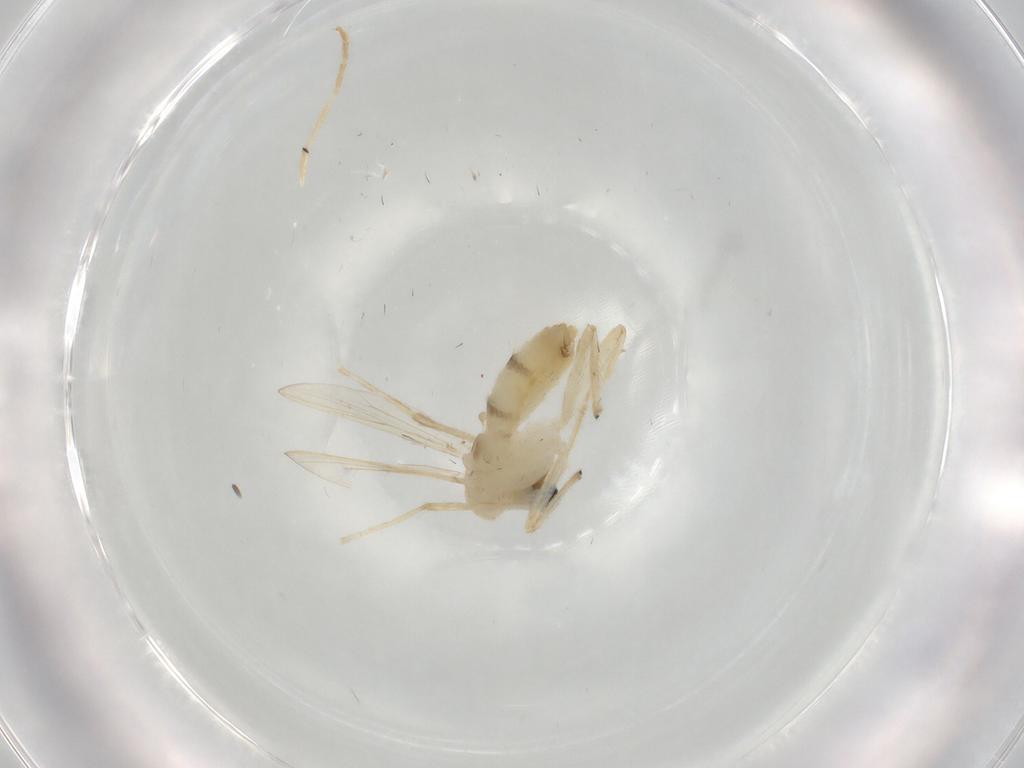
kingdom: Animalia
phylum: Arthropoda
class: Insecta
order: Diptera
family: Chironomidae
